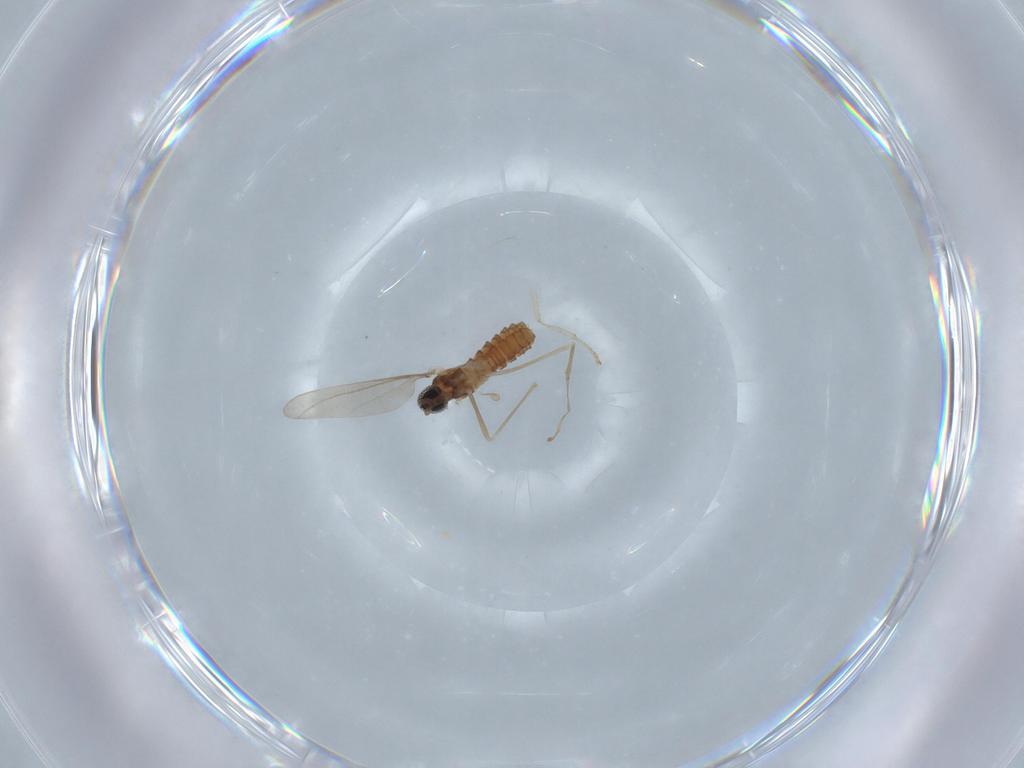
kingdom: Animalia
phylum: Arthropoda
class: Insecta
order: Diptera
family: Cecidomyiidae
